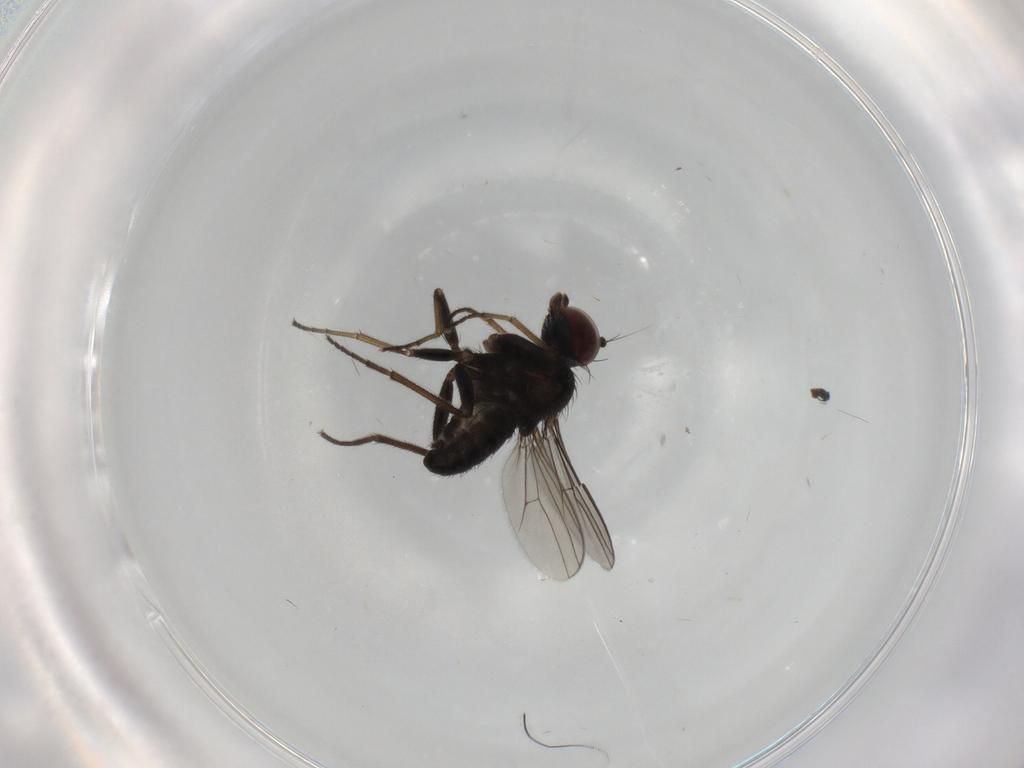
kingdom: Animalia
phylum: Arthropoda
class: Insecta
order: Diptera
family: Dolichopodidae
